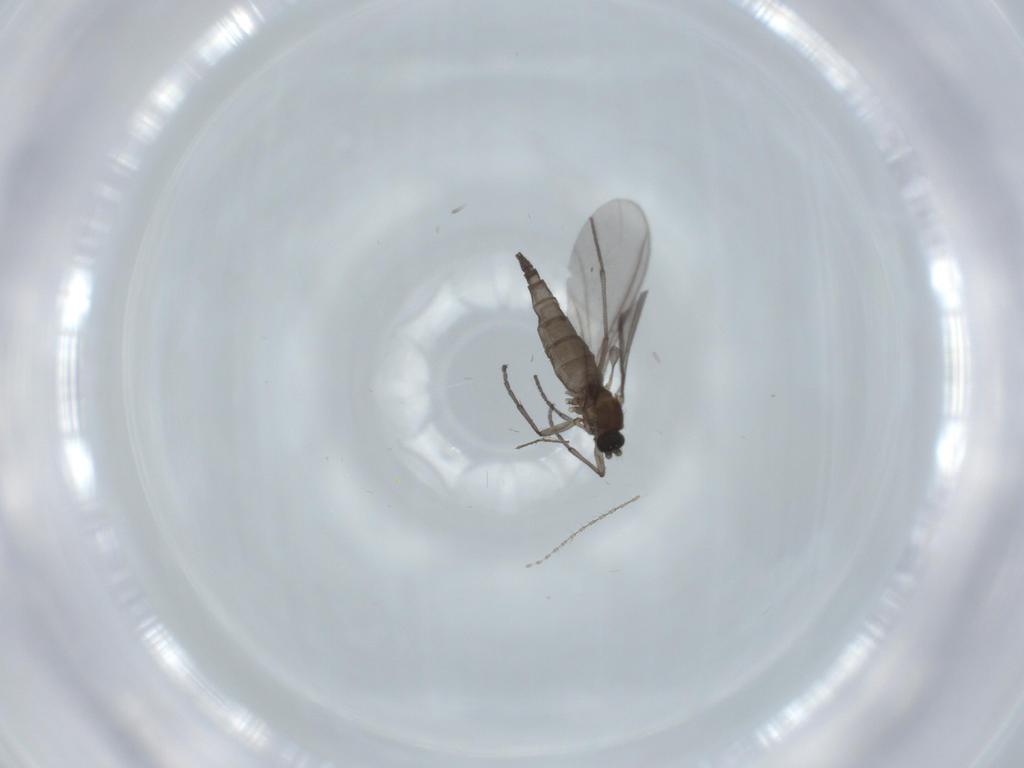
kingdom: Animalia
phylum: Arthropoda
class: Insecta
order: Diptera
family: Sciaridae
